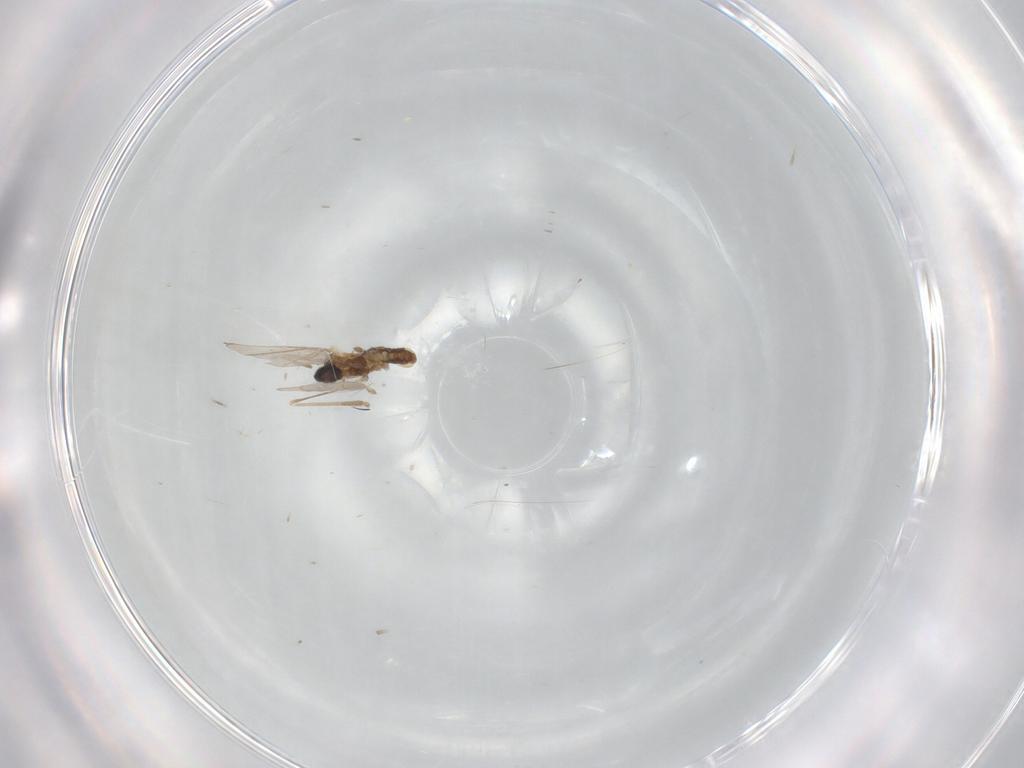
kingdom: Animalia
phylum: Arthropoda
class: Insecta
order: Diptera
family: Cecidomyiidae
